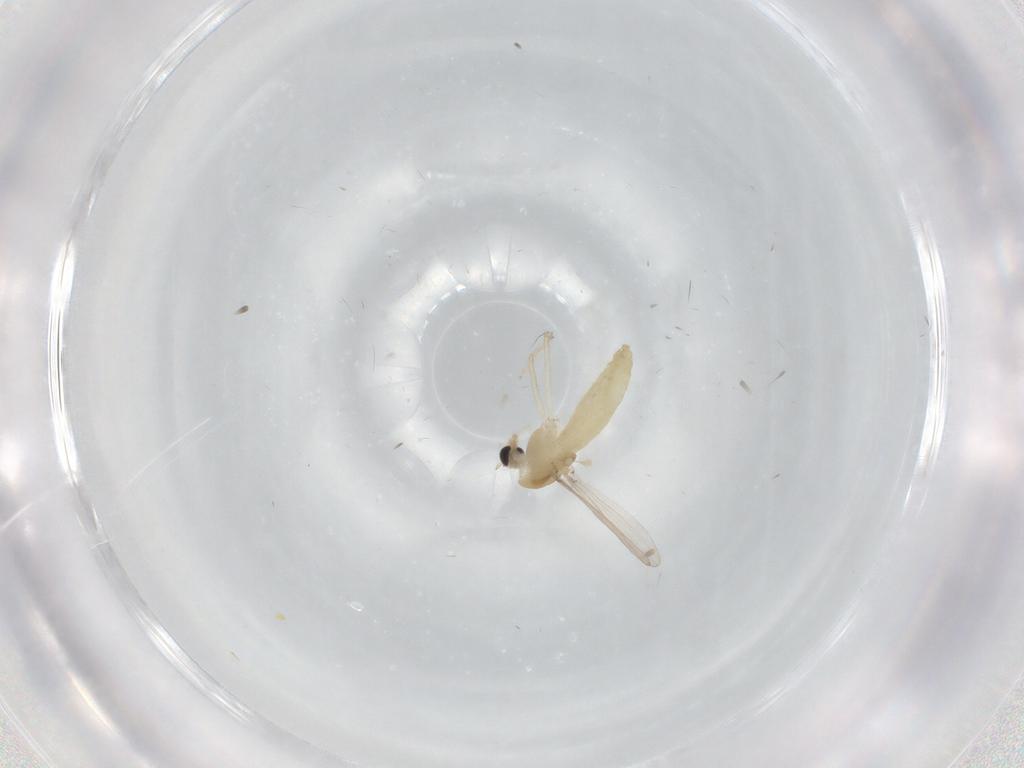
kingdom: Animalia
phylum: Arthropoda
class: Insecta
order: Diptera
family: Chironomidae
